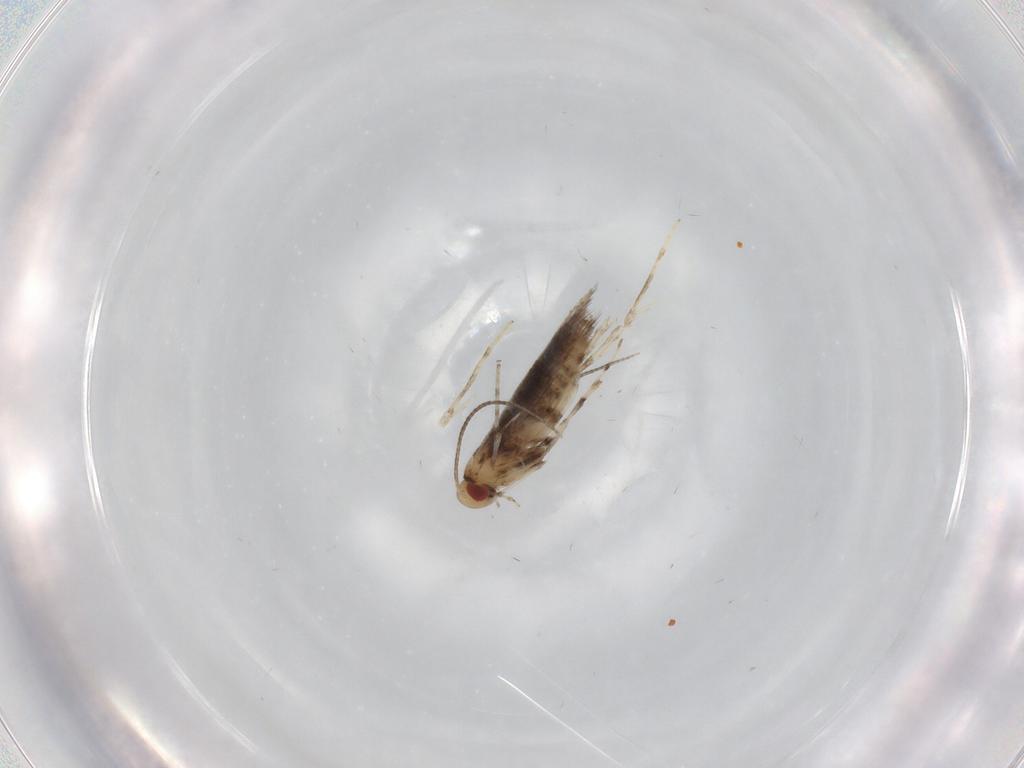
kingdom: Animalia
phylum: Arthropoda
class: Insecta
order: Lepidoptera
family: Gracillariidae
